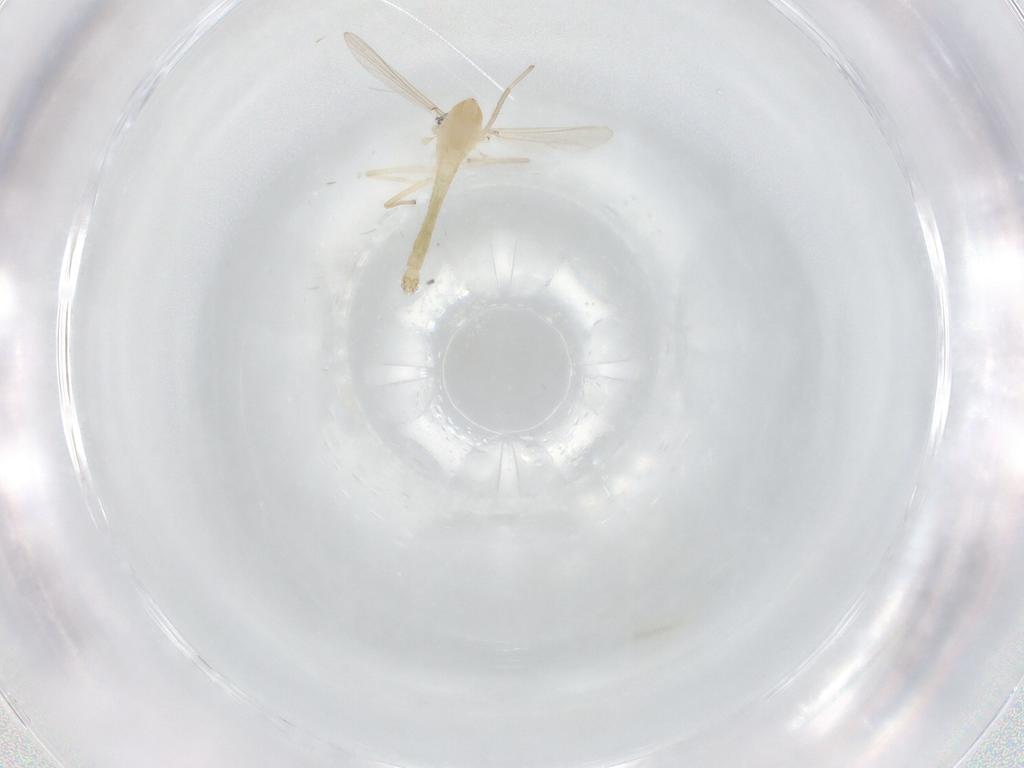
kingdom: Animalia
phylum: Arthropoda
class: Insecta
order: Diptera
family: Chironomidae
